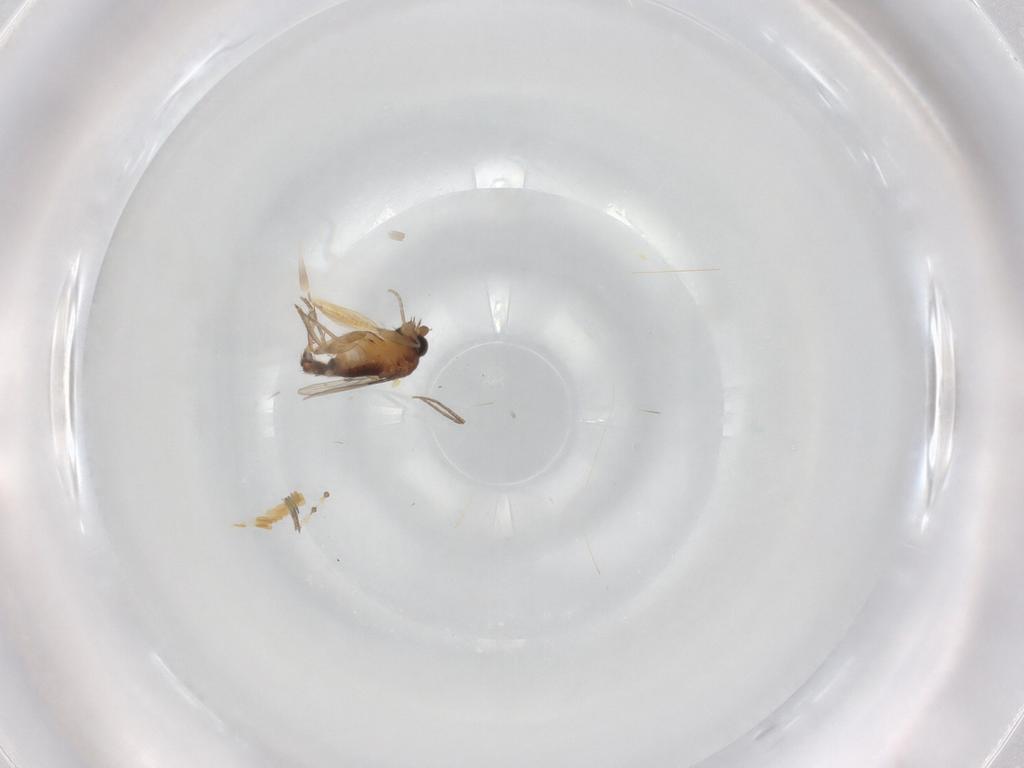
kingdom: Animalia
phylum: Arthropoda
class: Insecta
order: Diptera
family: Phoridae
